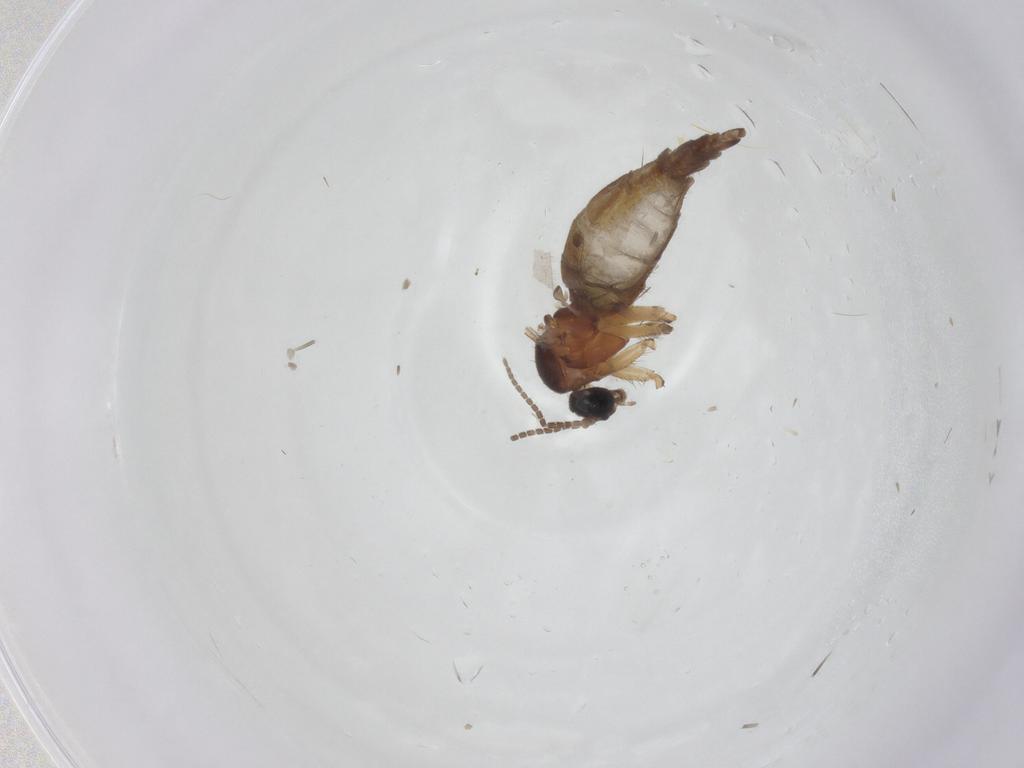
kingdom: Animalia
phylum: Arthropoda
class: Insecta
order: Diptera
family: Sciaridae
